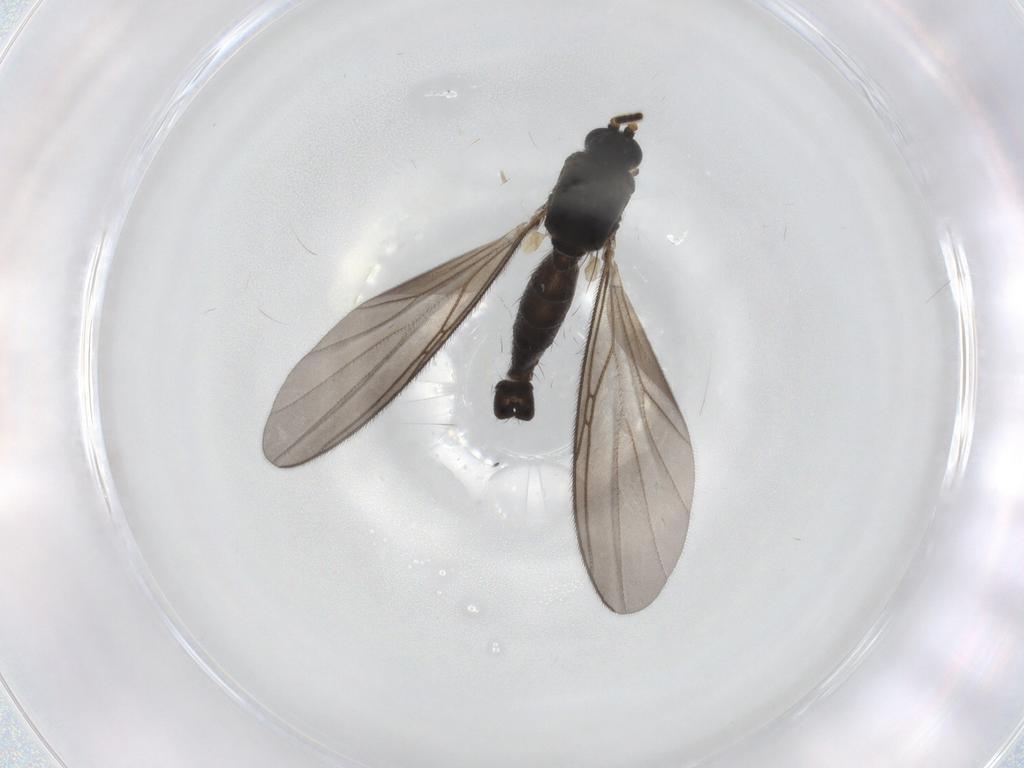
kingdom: Animalia
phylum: Arthropoda
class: Insecta
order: Diptera
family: Mycetophilidae
